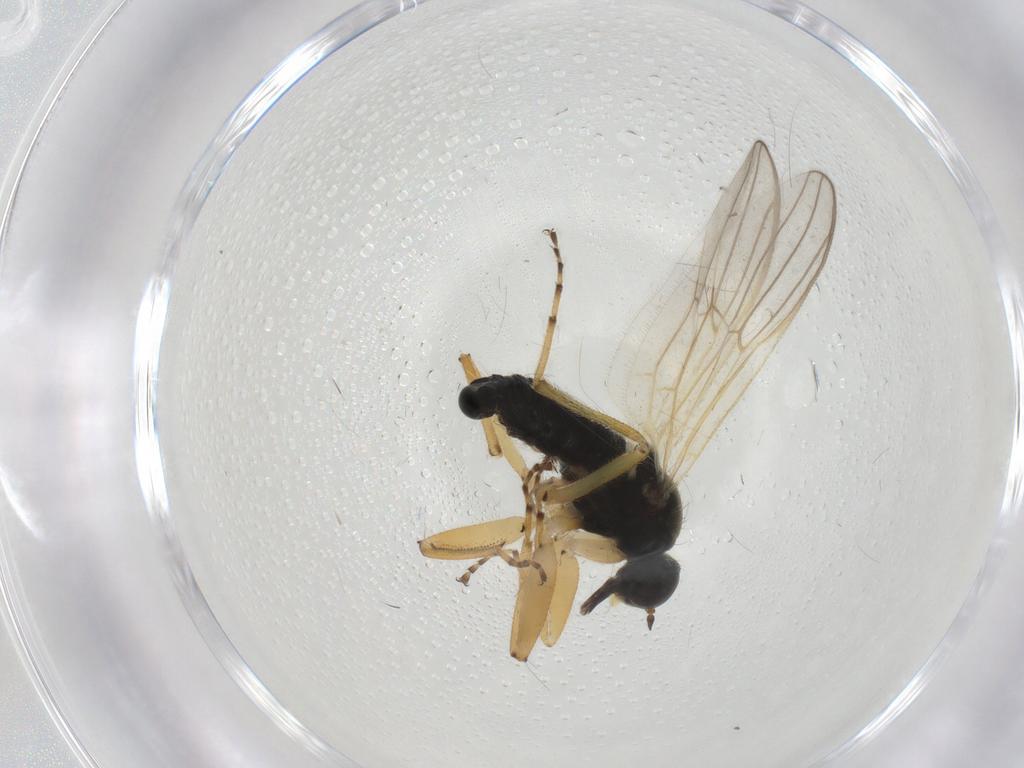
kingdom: Animalia
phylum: Arthropoda
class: Insecta
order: Diptera
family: Hybotidae
